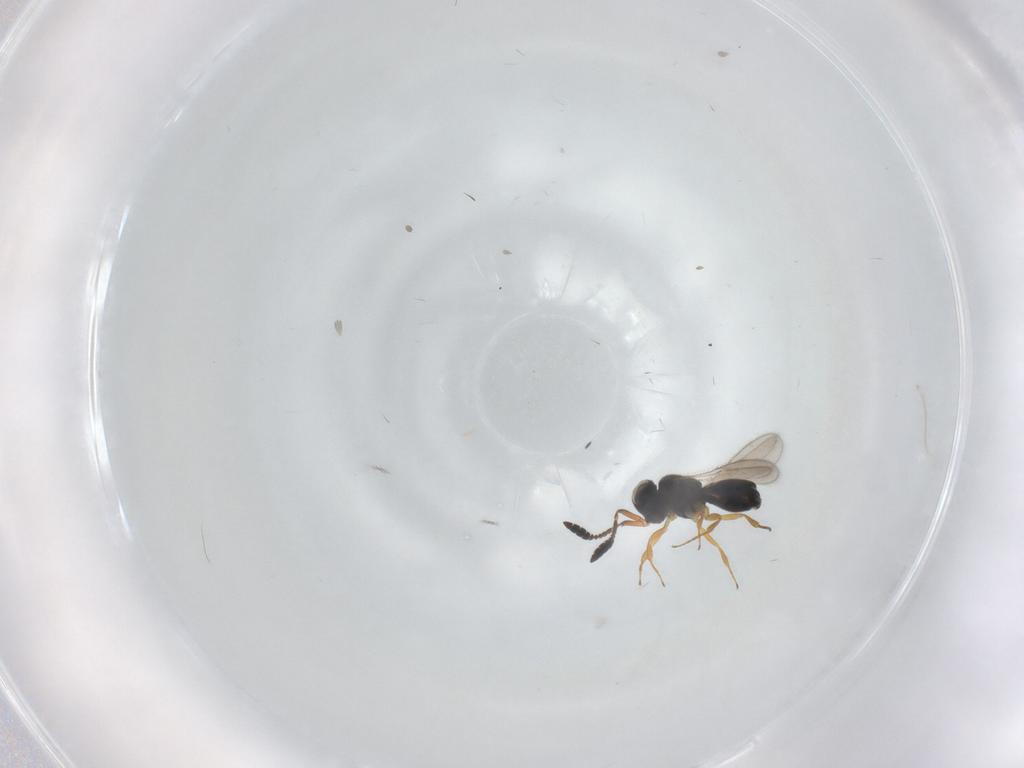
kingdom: Animalia
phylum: Arthropoda
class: Insecta
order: Hymenoptera
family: Scelionidae
